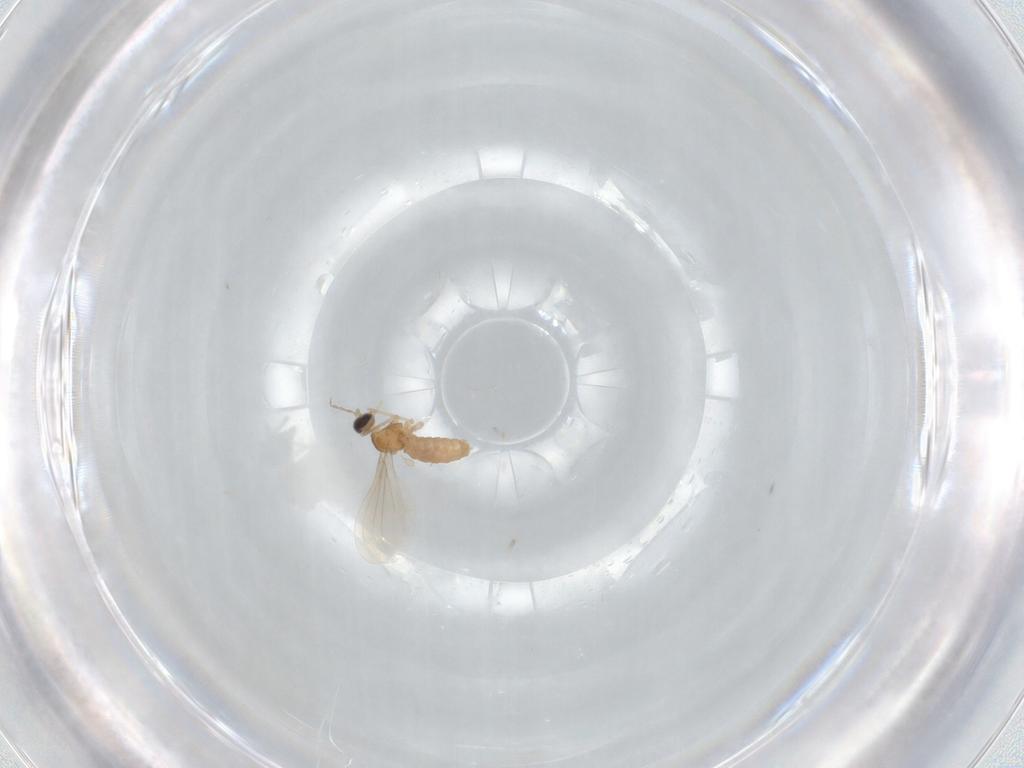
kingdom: Animalia
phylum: Arthropoda
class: Insecta
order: Diptera
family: Cecidomyiidae
